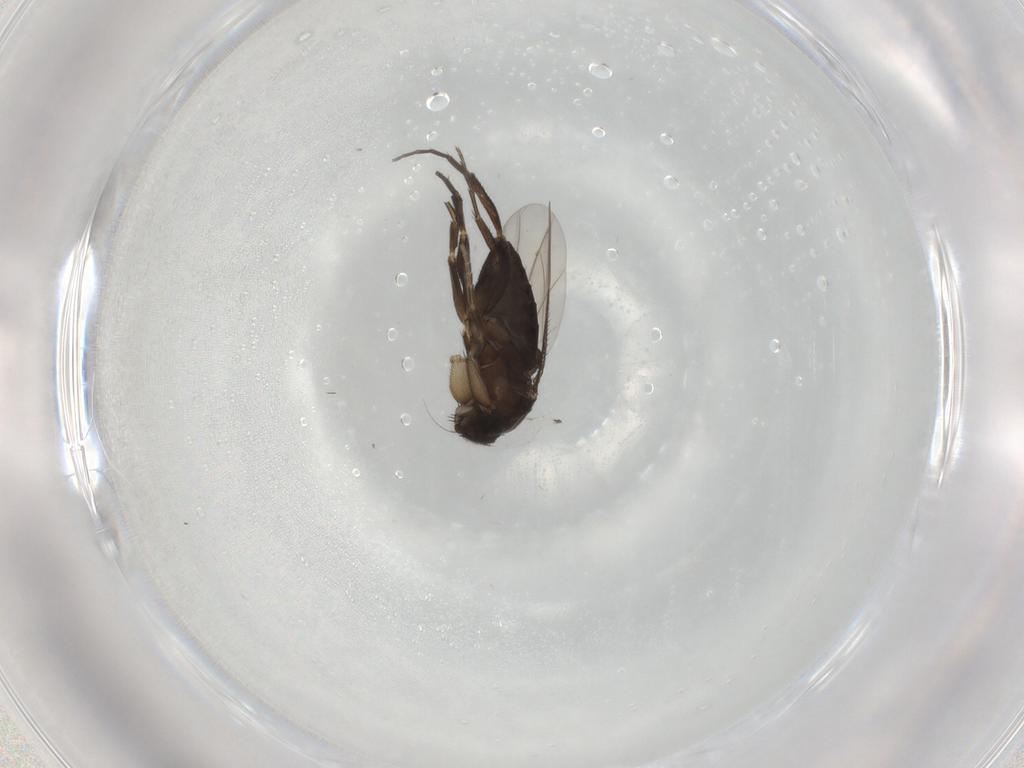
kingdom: Animalia
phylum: Arthropoda
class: Insecta
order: Diptera
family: Phoridae
